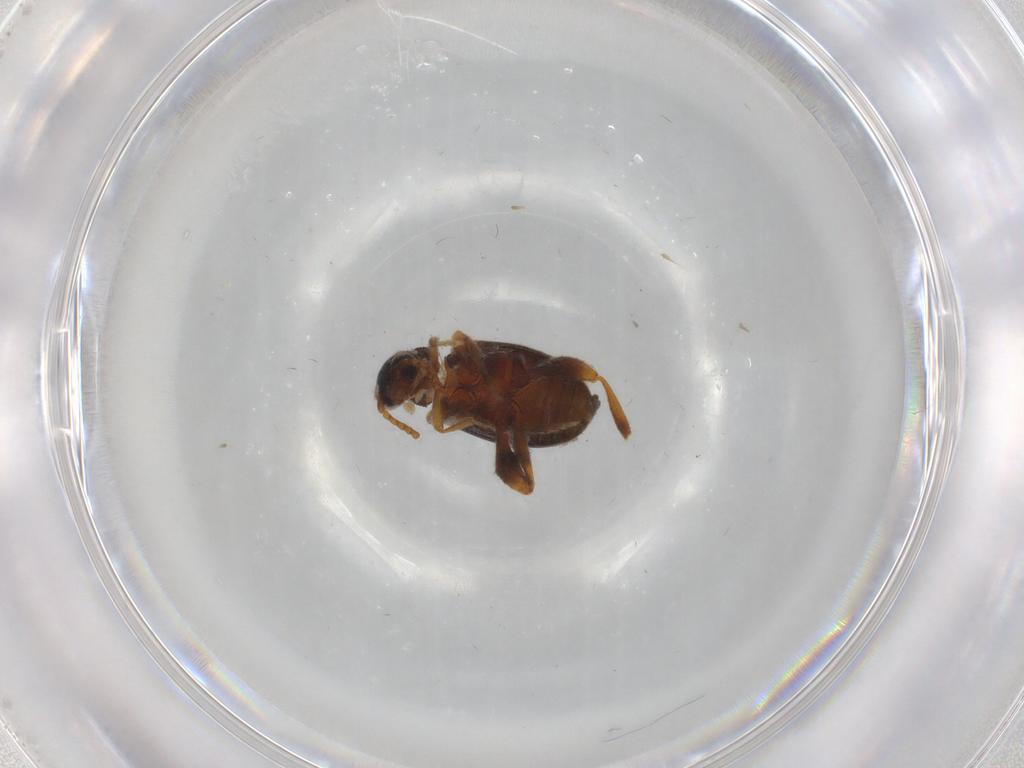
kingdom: Animalia
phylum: Arthropoda
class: Insecta
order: Coleoptera
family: Aderidae
